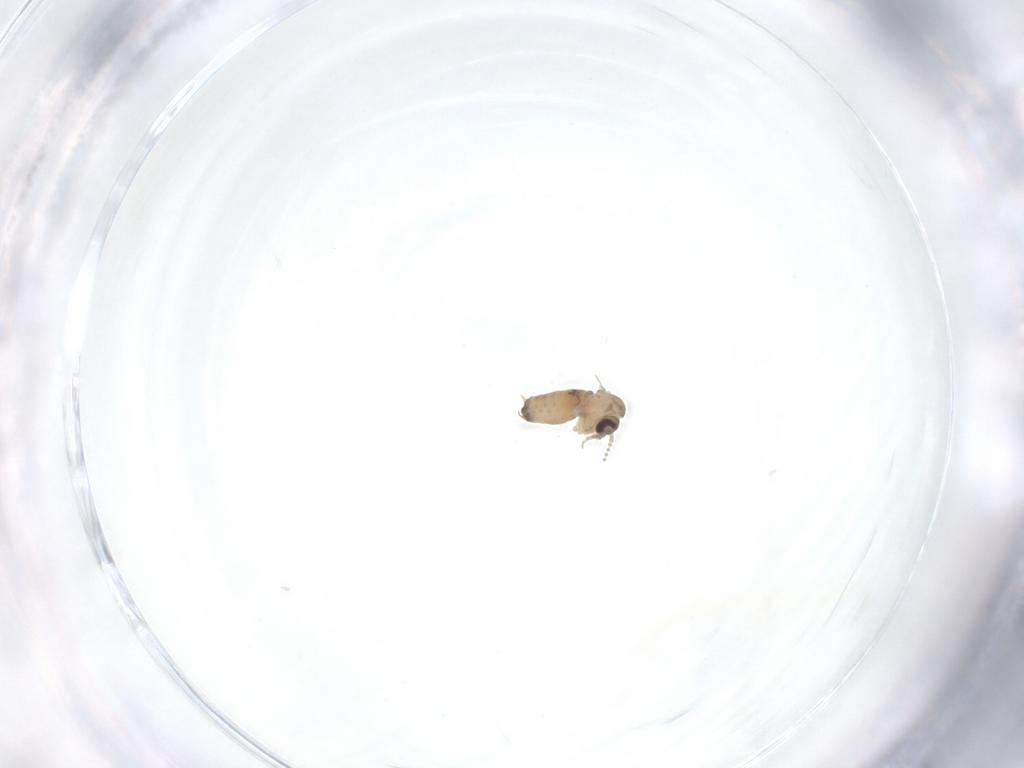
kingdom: Animalia
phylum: Arthropoda
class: Insecta
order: Diptera
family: Psychodidae
